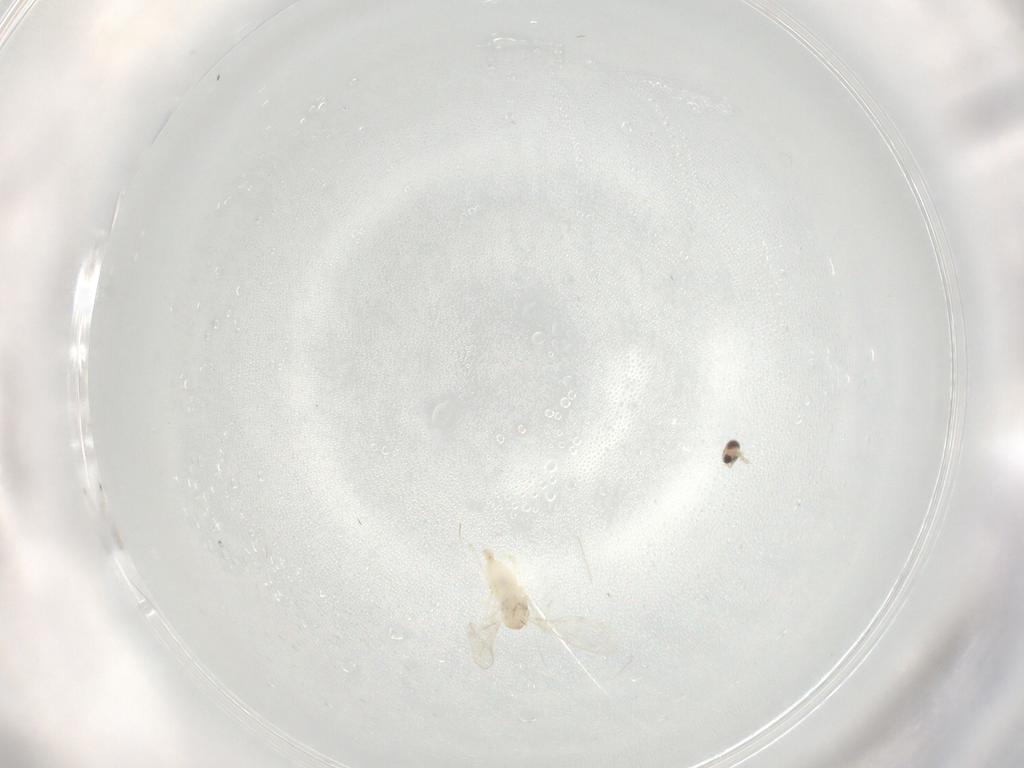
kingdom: Animalia
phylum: Arthropoda
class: Insecta
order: Diptera
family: Cecidomyiidae
